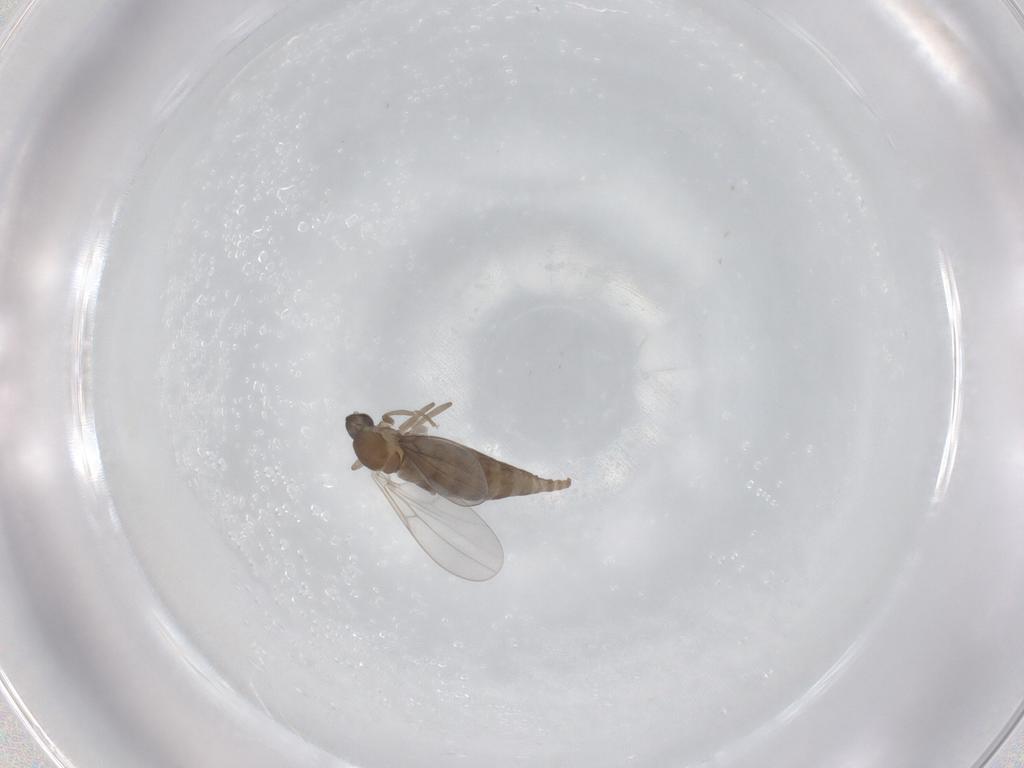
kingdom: Animalia
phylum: Arthropoda
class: Insecta
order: Diptera
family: Cecidomyiidae
